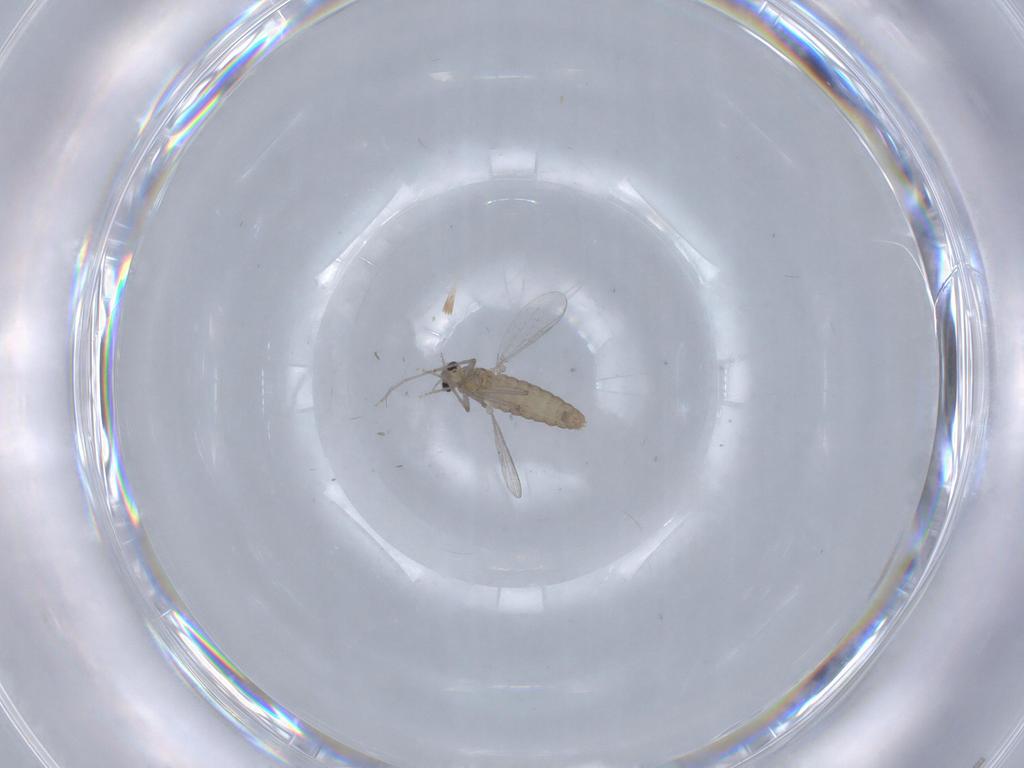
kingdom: Animalia
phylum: Arthropoda
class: Insecta
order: Diptera
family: Chironomidae
